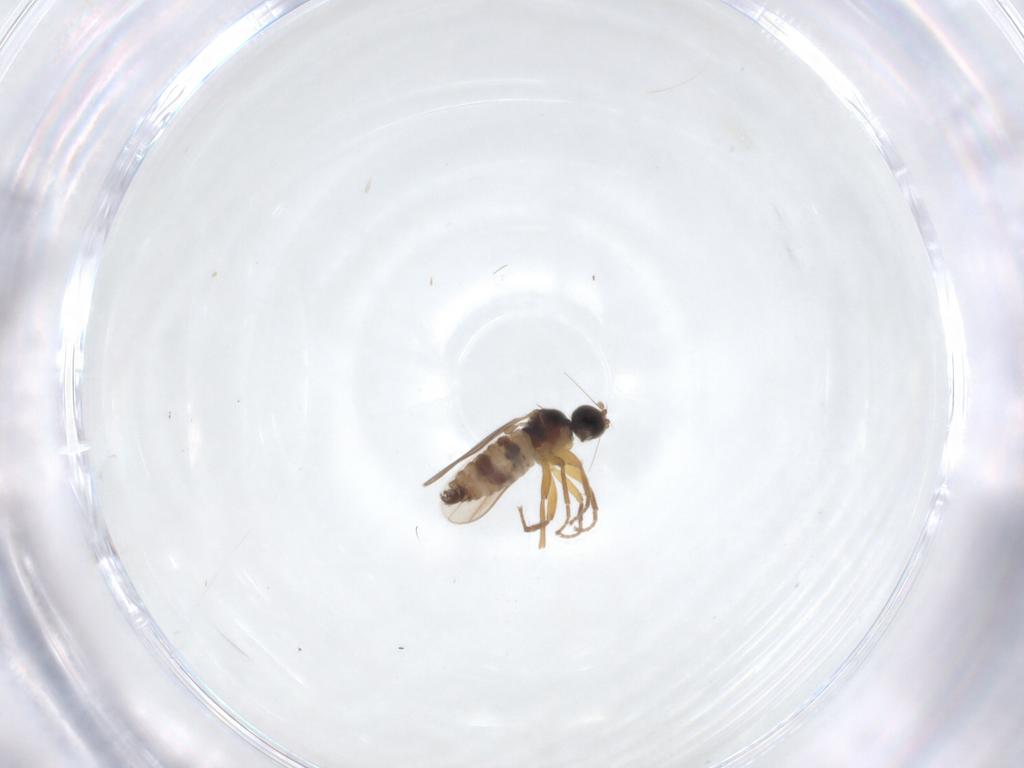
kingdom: Animalia
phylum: Arthropoda
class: Insecta
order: Diptera
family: Hybotidae
